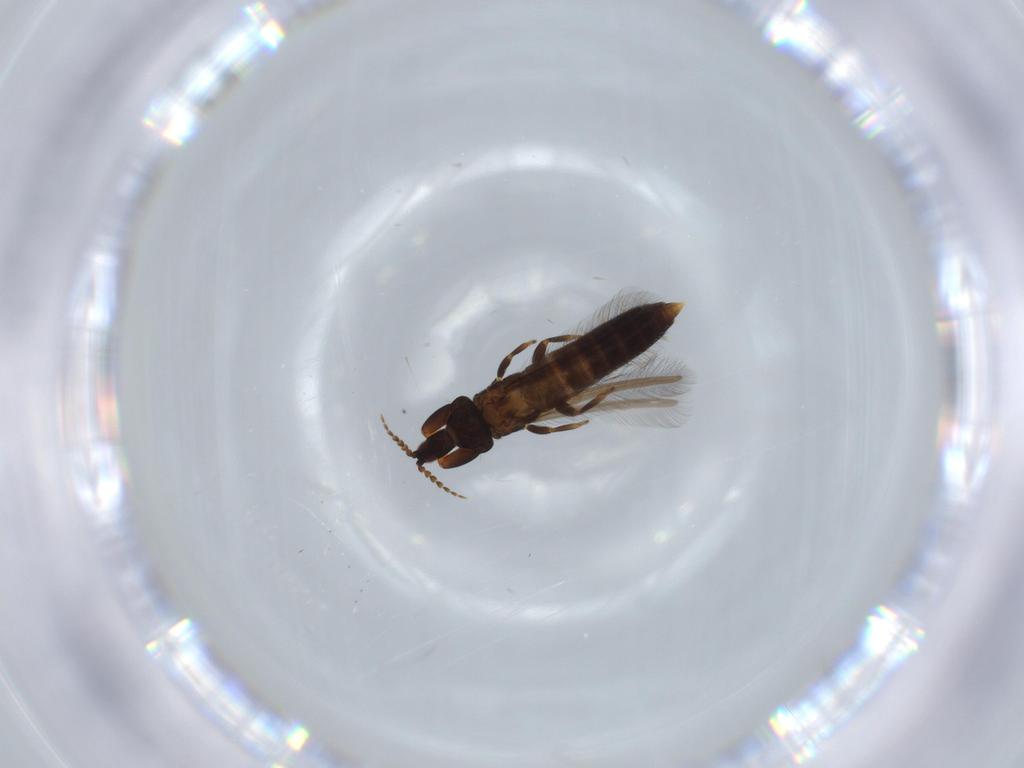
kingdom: Animalia
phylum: Arthropoda
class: Insecta
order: Thysanoptera
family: Phlaeothripidae
